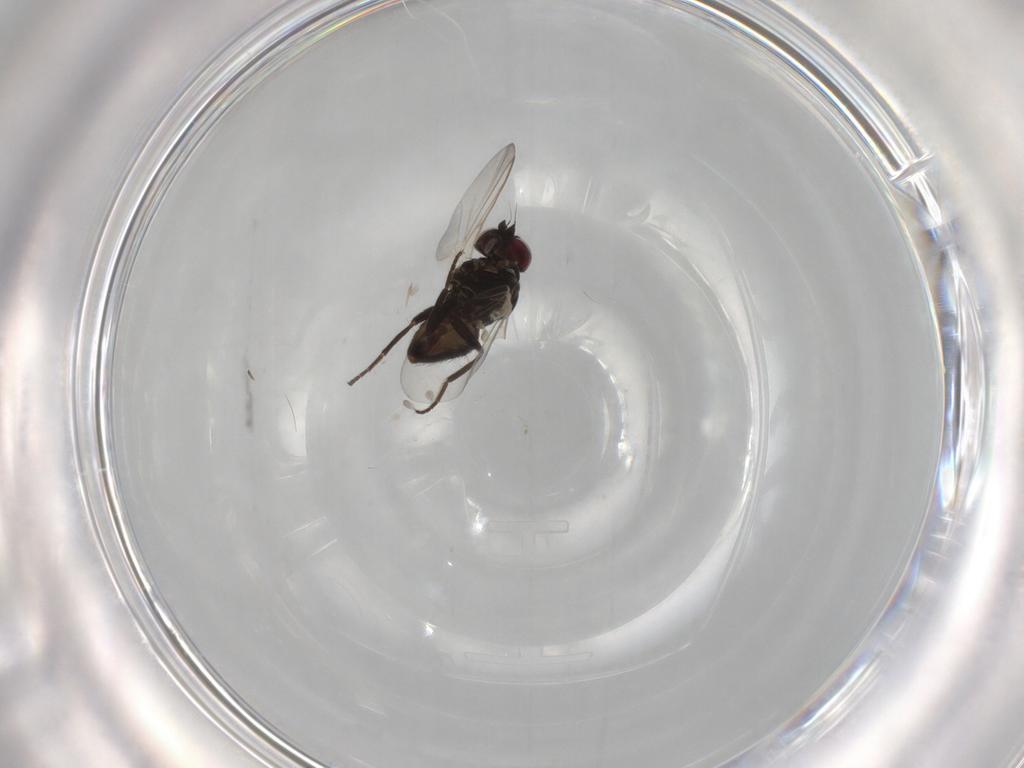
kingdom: Animalia
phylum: Arthropoda
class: Insecta
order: Diptera
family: Agromyzidae
